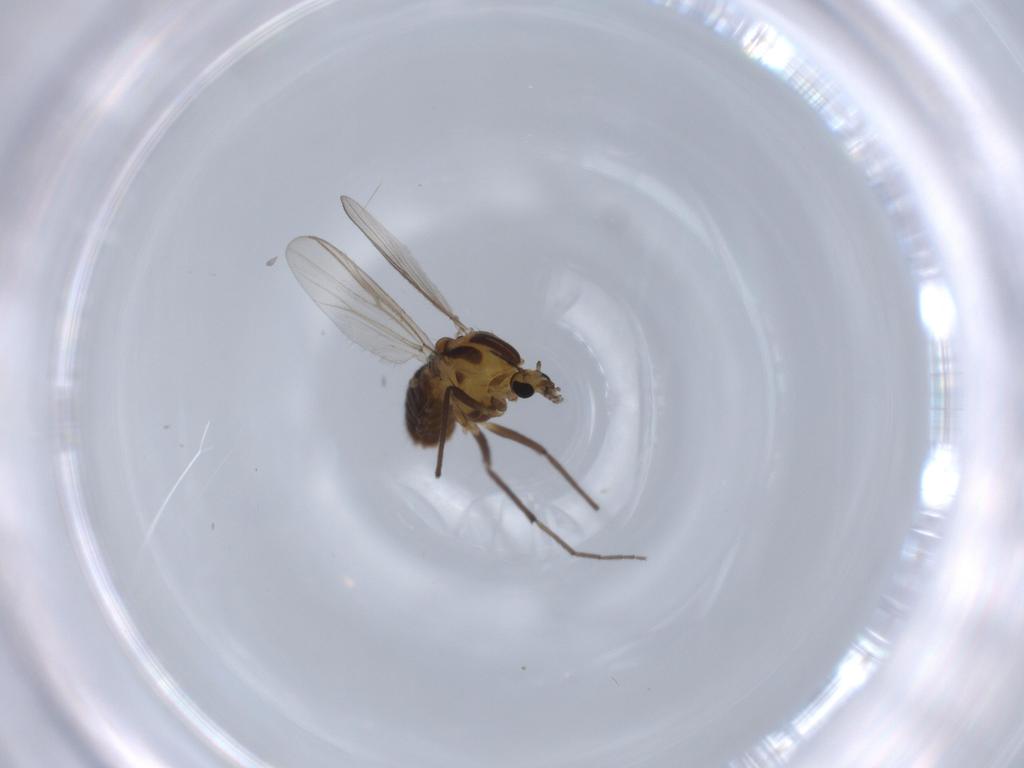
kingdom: Animalia
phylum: Arthropoda
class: Insecta
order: Diptera
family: Chironomidae
